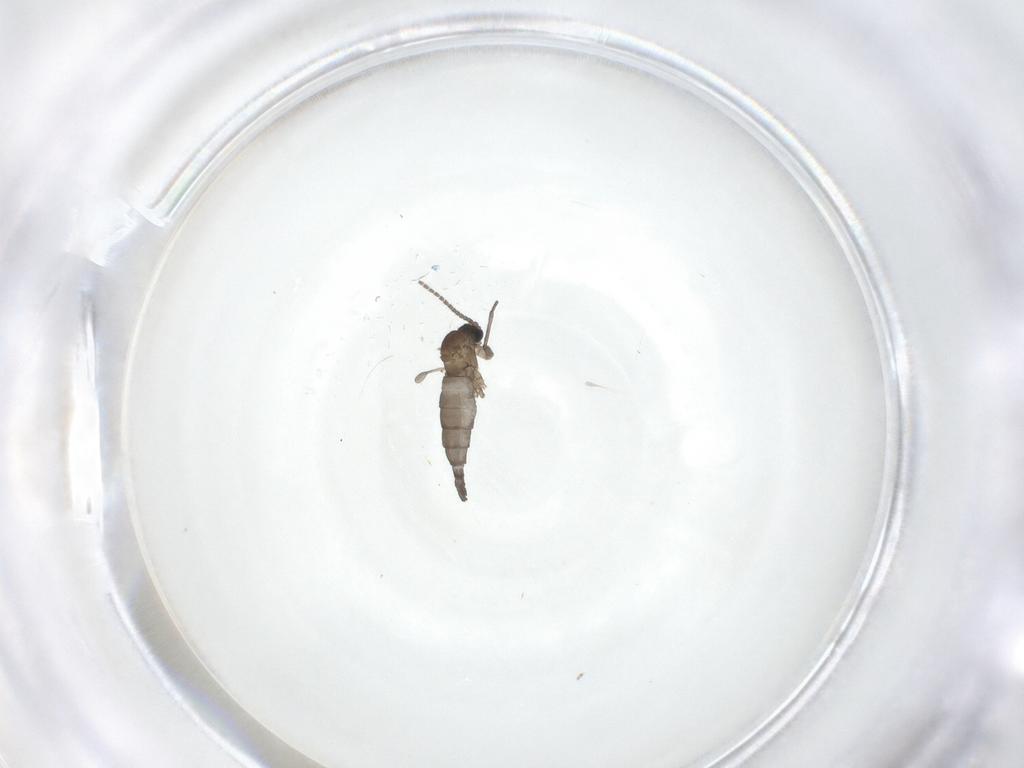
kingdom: Animalia
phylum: Arthropoda
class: Insecta
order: Diptera
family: Sciaridae
